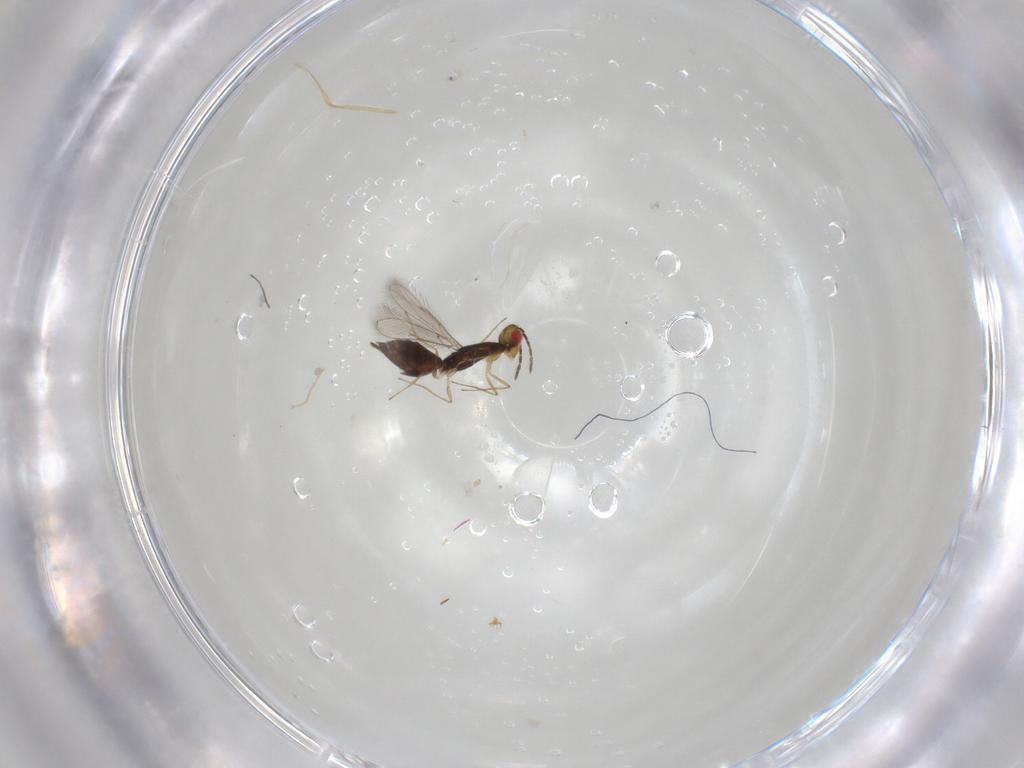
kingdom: Animalia
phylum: Arthropoda
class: Insecta
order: Hymenoptera
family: Eulophidae
